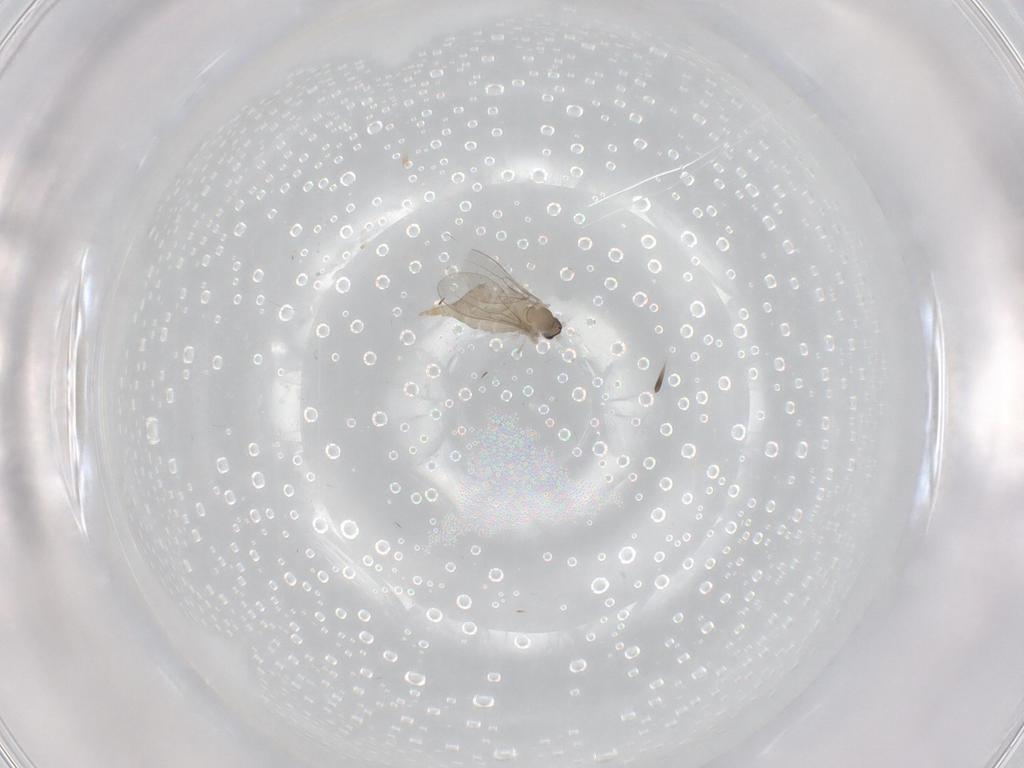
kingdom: Animalia
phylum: Arthropoda
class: Insecta
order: Diptera
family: Cecidomyiidae
